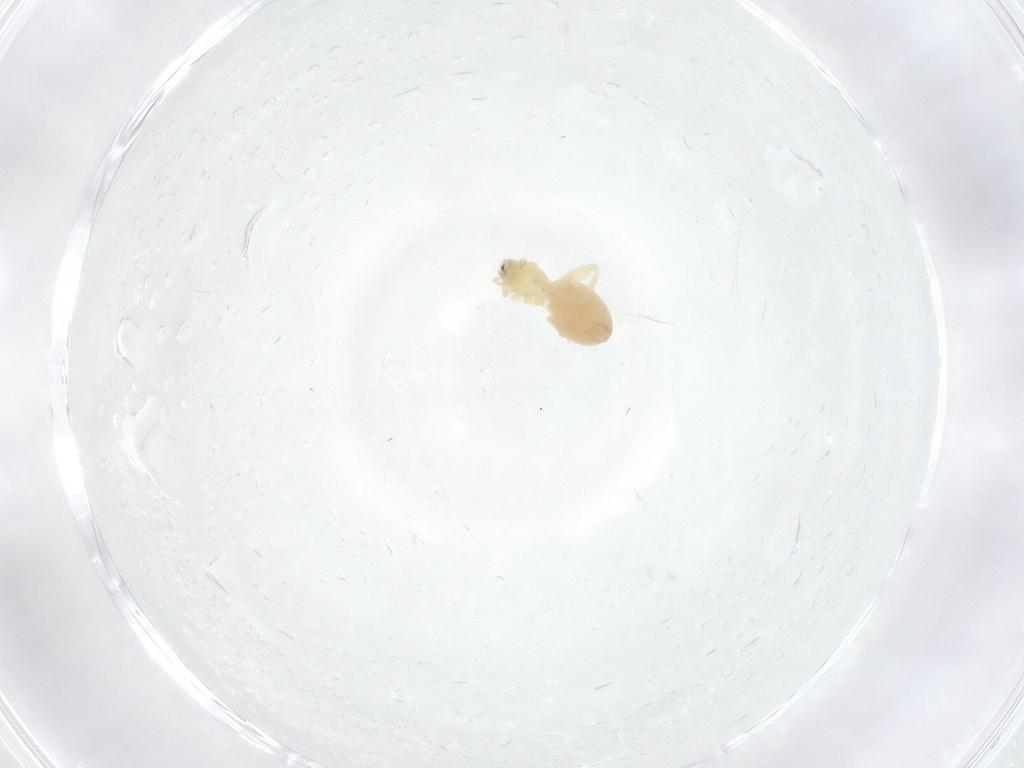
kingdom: Animalia
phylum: Arthropoda
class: Arachnida
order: Araneae
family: Dictynidae
